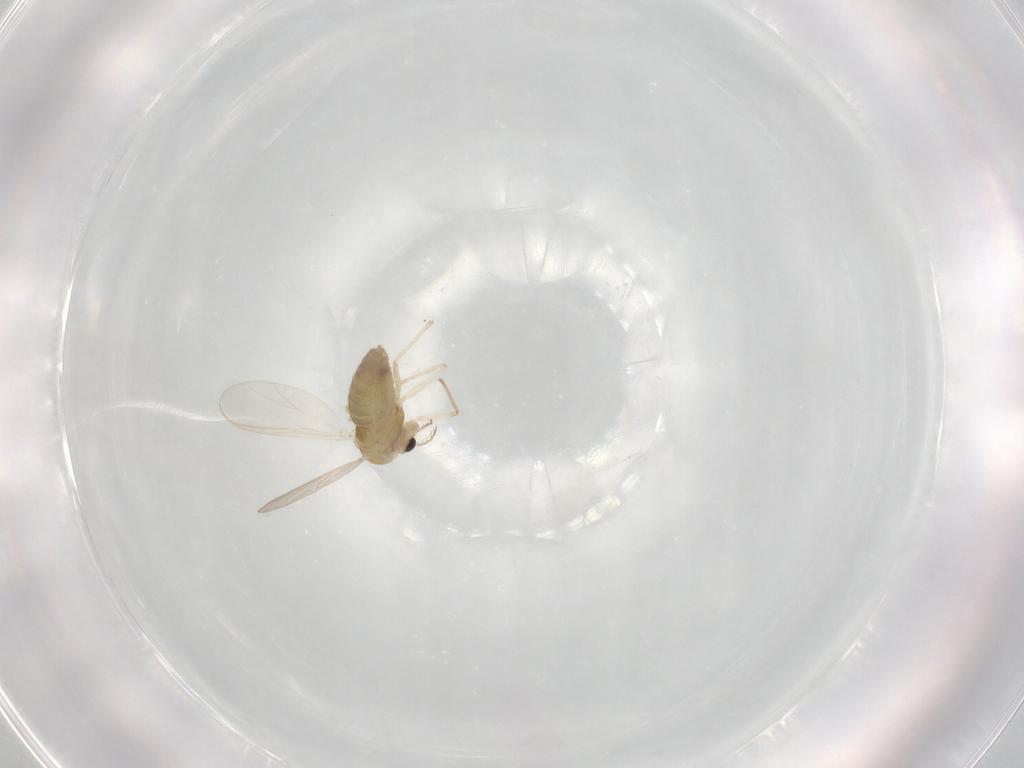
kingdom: Animalia
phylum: Arthropoda
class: Insecta
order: Diptera
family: Chironomidae
